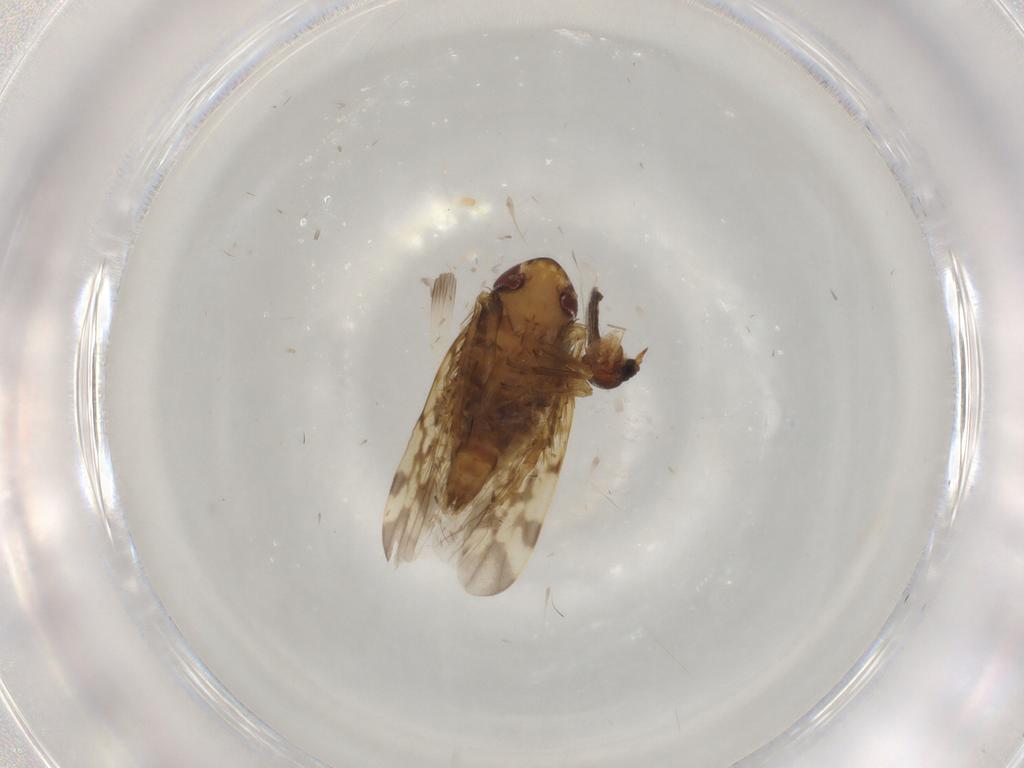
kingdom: Animalia
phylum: Arthropoda
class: Insecta
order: Hemiptera
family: Cicadellidae
